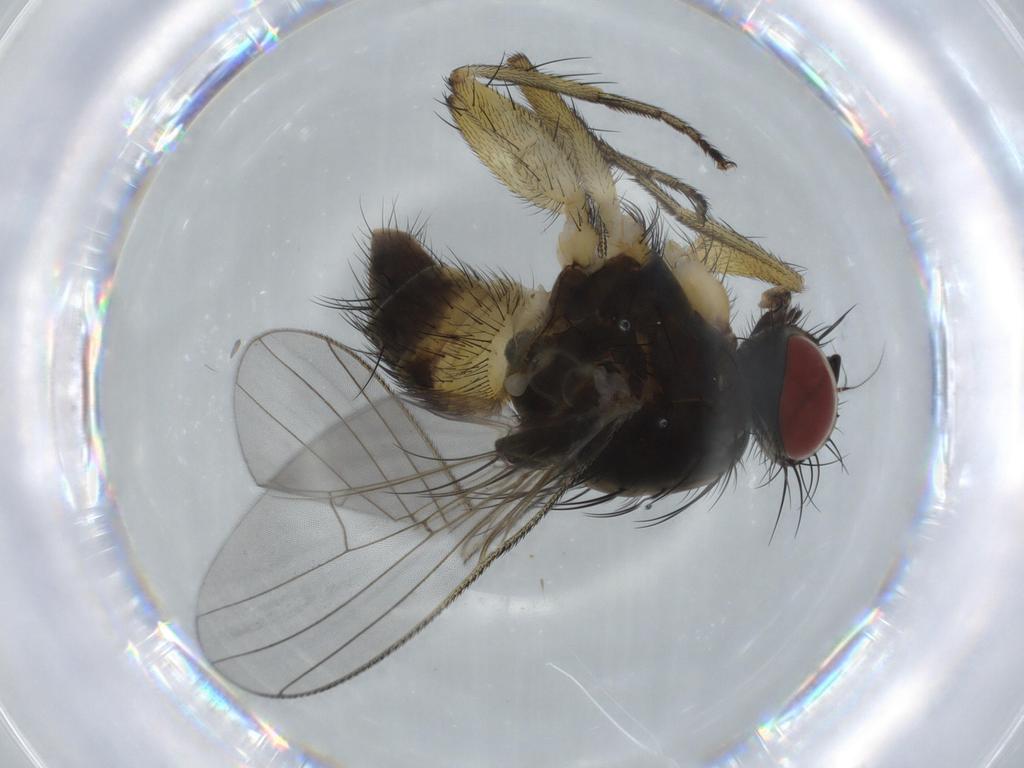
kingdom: Animalia
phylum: Arthropoda
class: Insecta
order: Diptera
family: Muscidae
